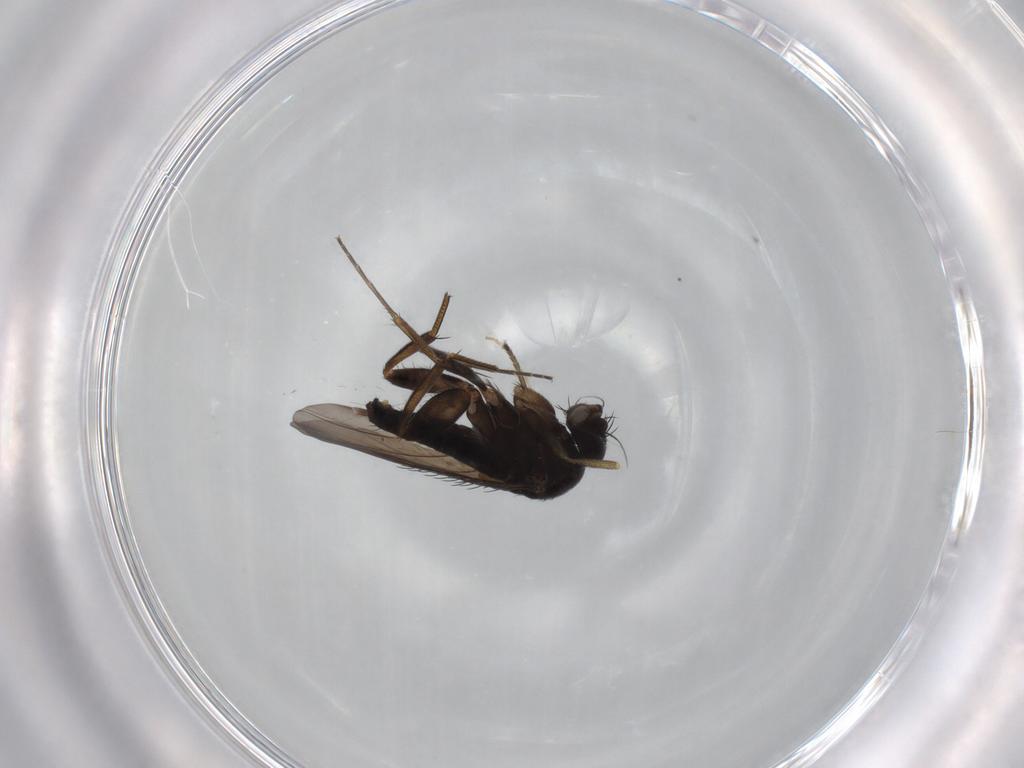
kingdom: Animalia
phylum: Arthropoda
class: Insecta
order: Diptera
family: Phoridae
